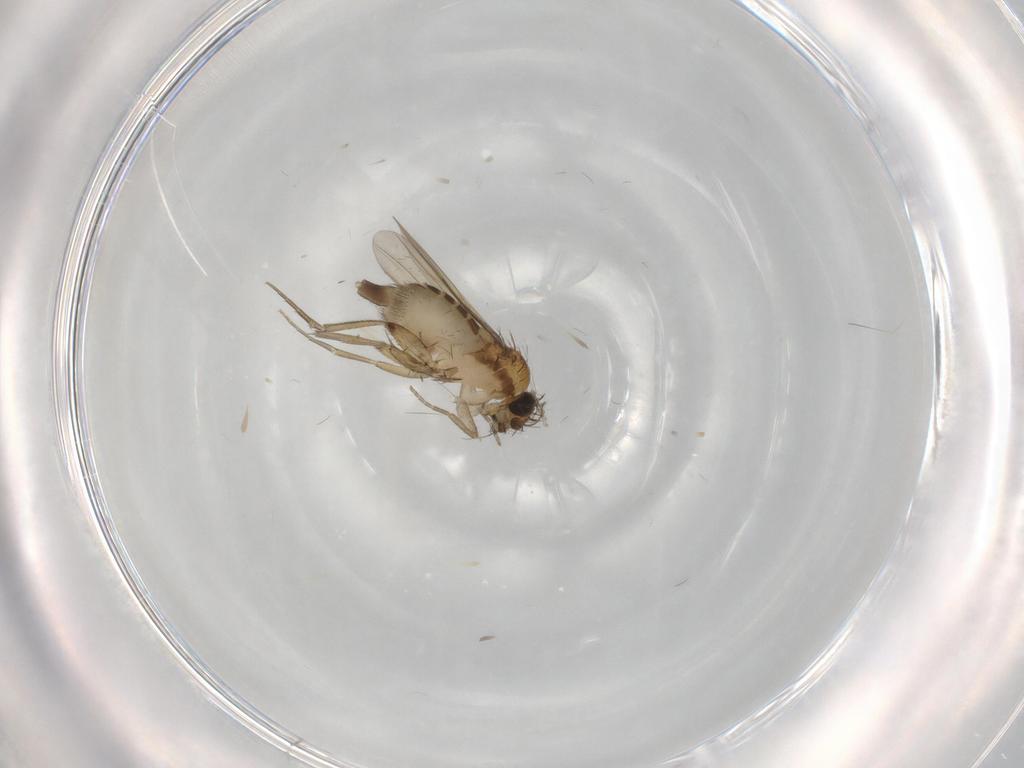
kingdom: Animalia
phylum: Arthropoda
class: Insecta
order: Diptera
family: Phoridae
